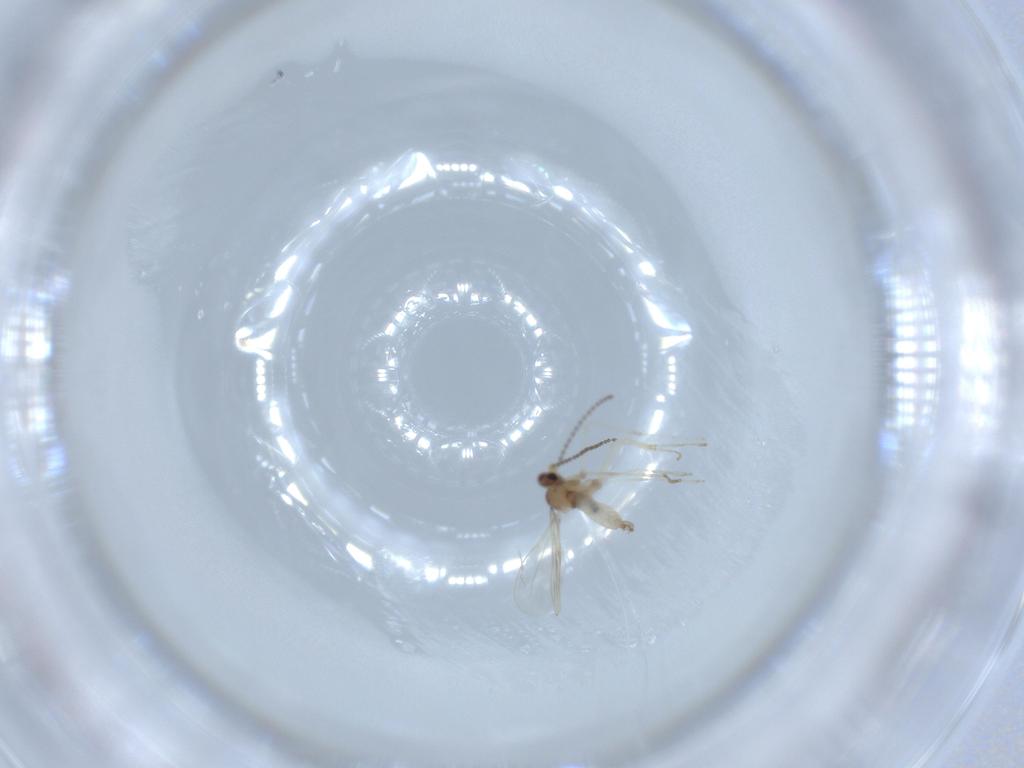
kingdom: Animalia
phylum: Arthropoda
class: Insecta
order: Diptera
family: Cecidomyiidae
